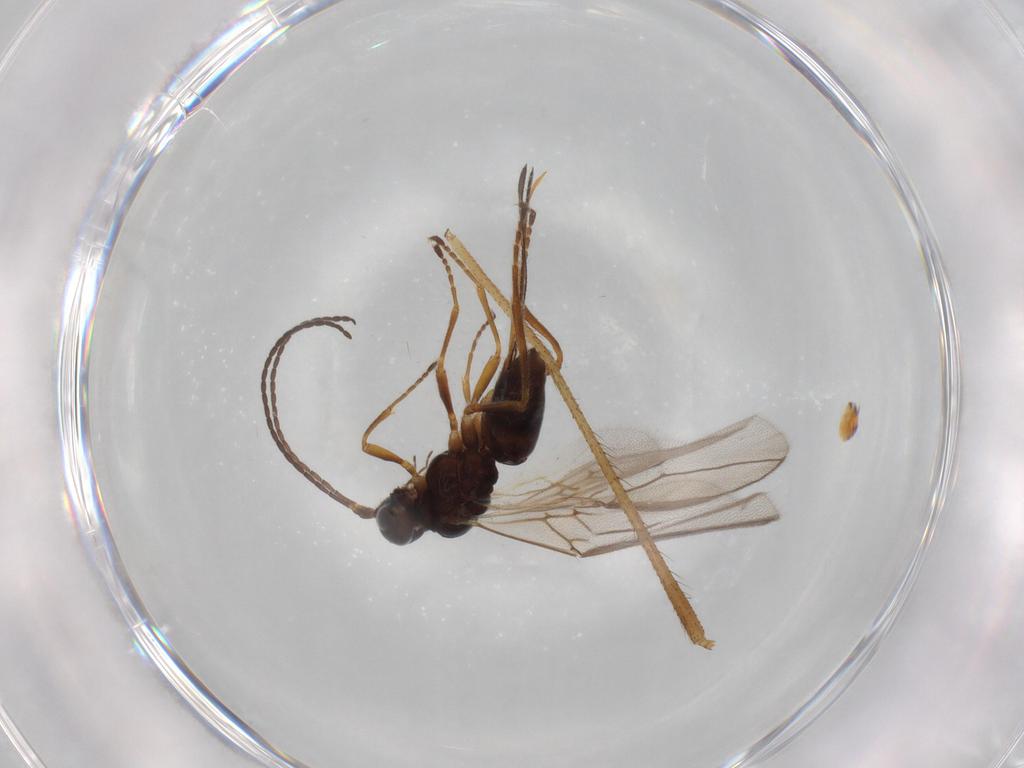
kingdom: Animalia
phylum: Arthropoda
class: Insecta
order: Hymenoptera
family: Braconidae
